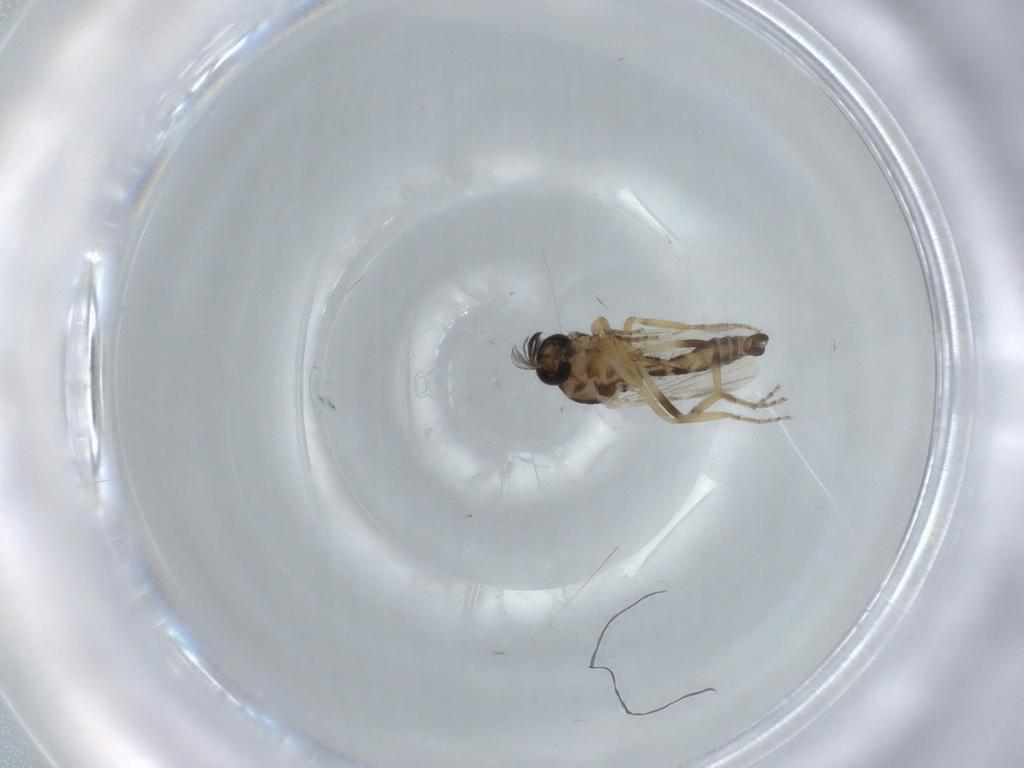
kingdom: Animalia
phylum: Arthropoda
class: Insecta
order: Diptera
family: Ceratopogonidae
